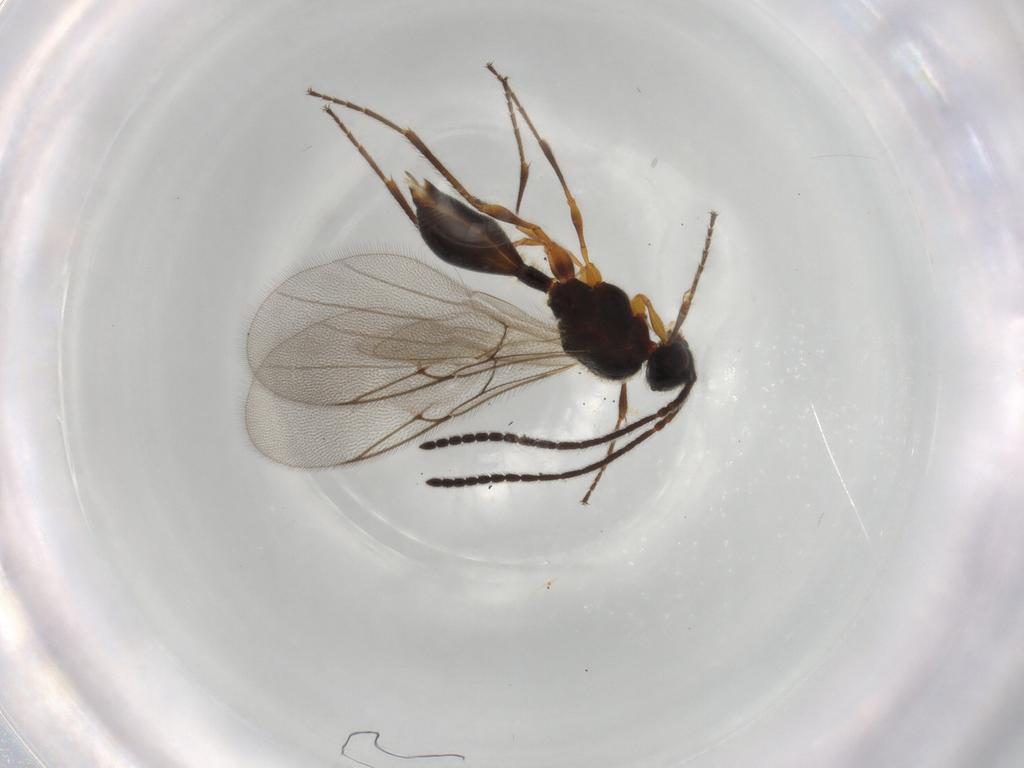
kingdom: Animalia
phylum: Arthropoda
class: Insecta
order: Hymenoptera
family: Diapriidae
